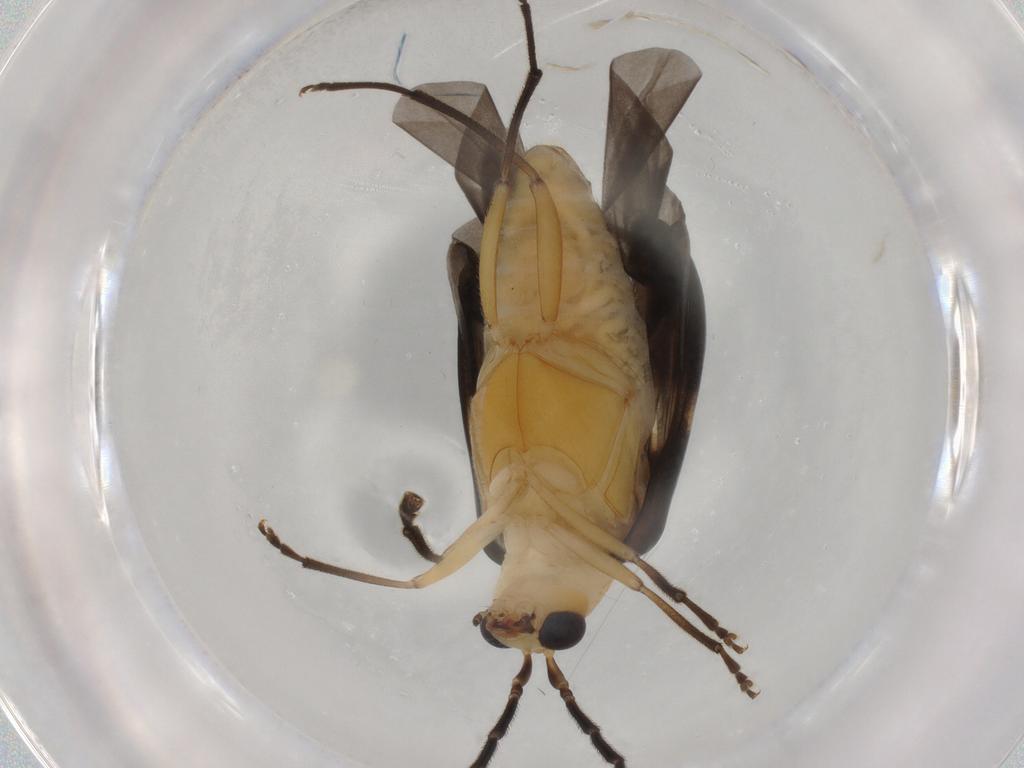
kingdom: Animalia
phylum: Arthropoda
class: Insecta
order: Coleoptera
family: Chrysomelidae
